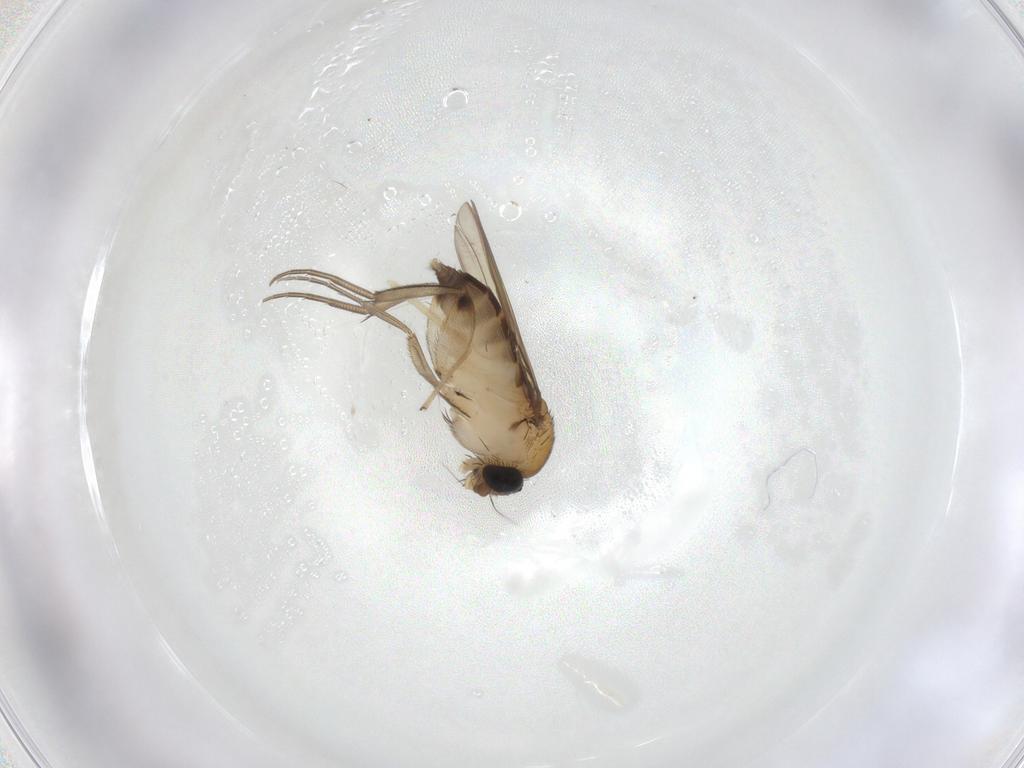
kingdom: Animalia
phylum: Arthropoda
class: Insecta
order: Diptera
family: Phoridae
